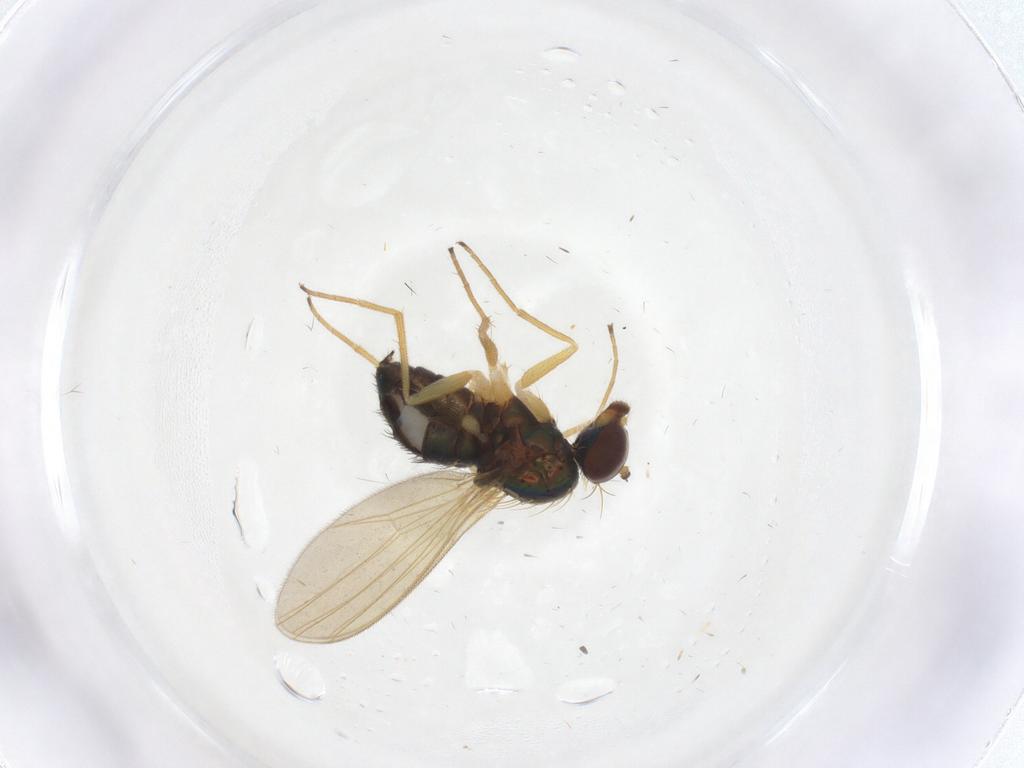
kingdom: Animalia
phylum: Arthropoda
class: Insecta
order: Diptera
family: Dolichopodidae
